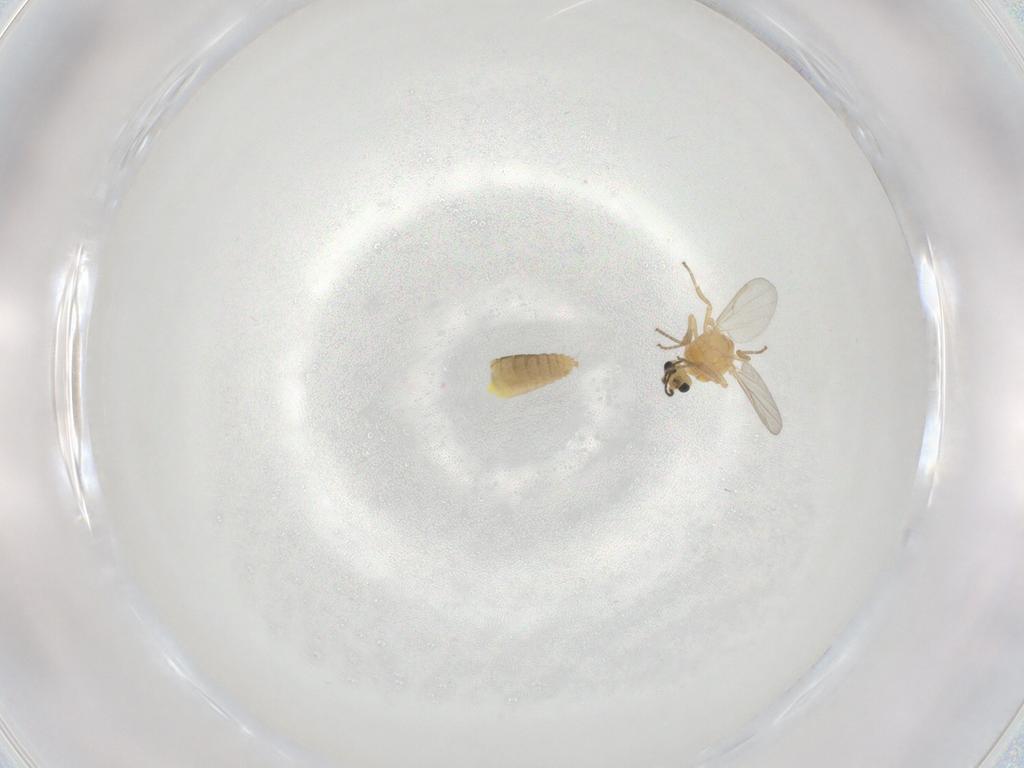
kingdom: Animalia
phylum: Arthropoda
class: Insecta
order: Diptera
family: Ceratopogonidae
